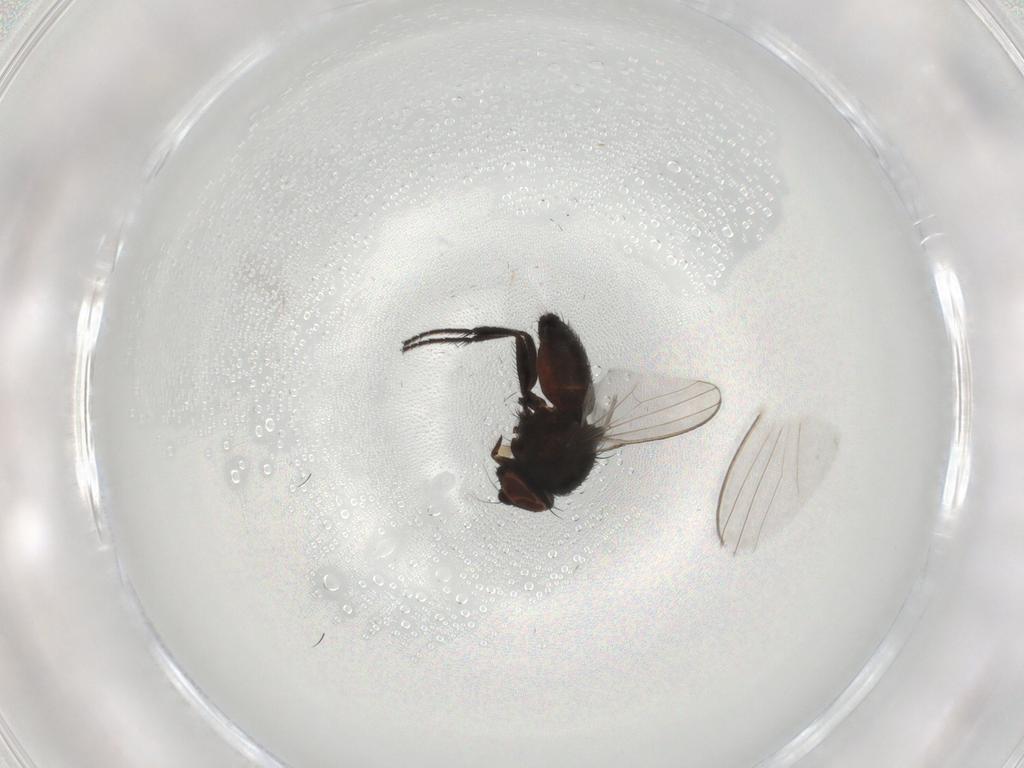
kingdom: Animalia
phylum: Arthropoda
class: Insecta
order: Diptera
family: Milichiidae
